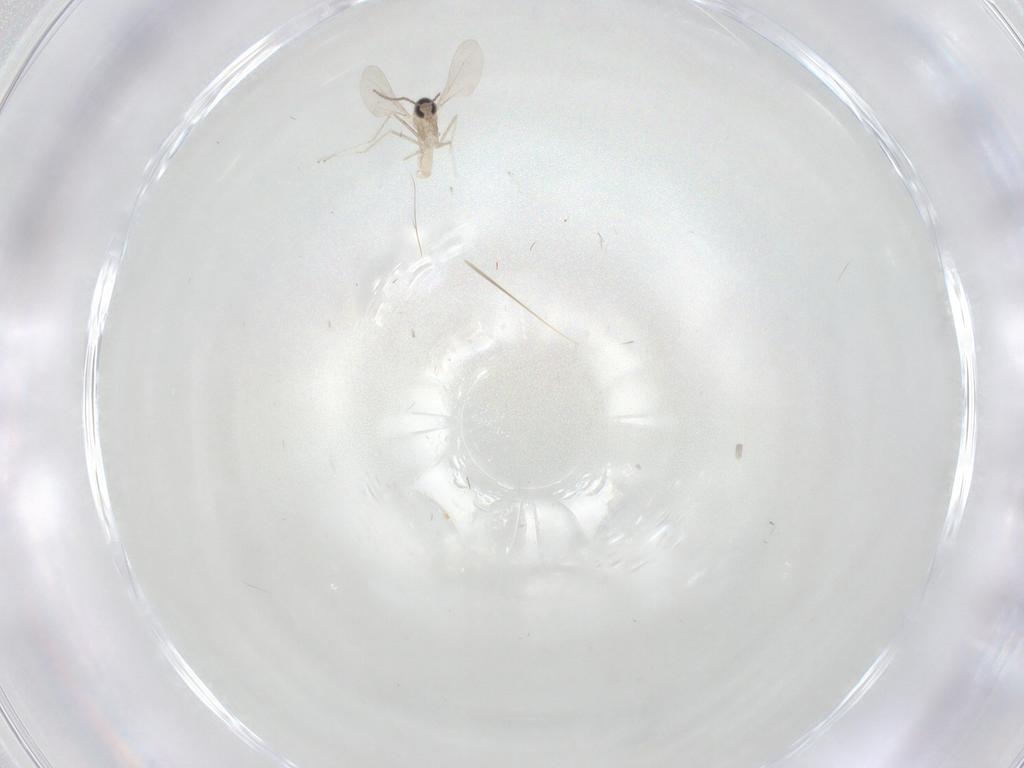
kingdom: Animalia
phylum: Arthropoda
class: Insecta
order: Diptera
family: Cecidomyiidae
